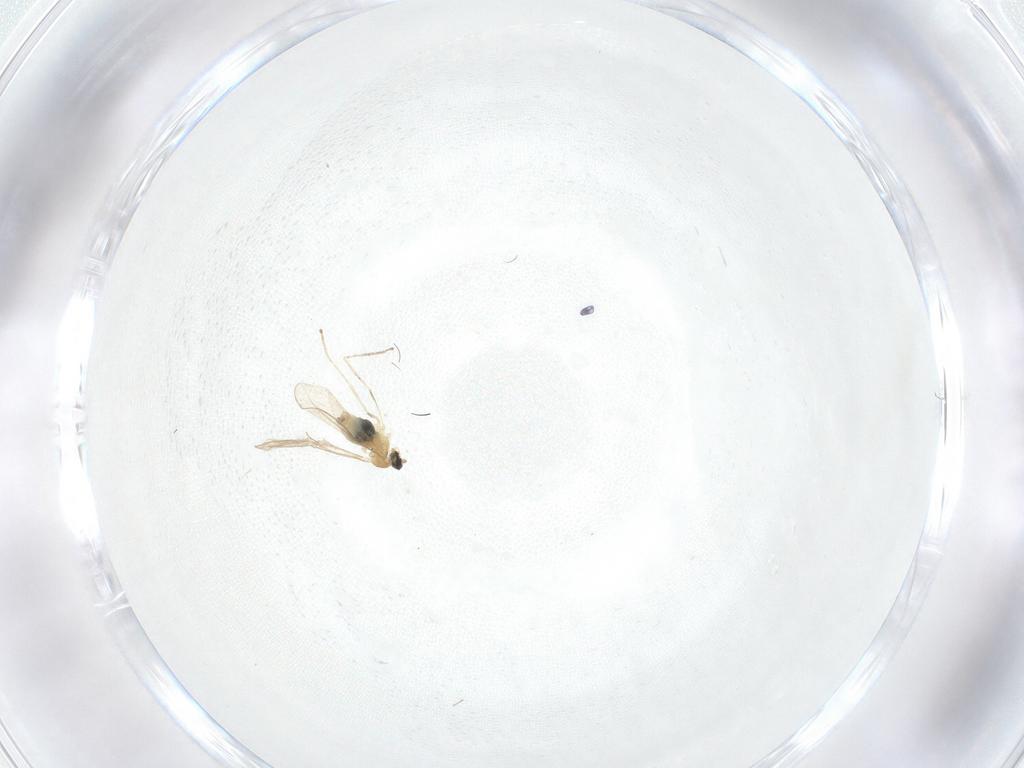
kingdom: Animalia
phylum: Arthropoda
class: Insecta
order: Diptera
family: Cecidomyiidae
